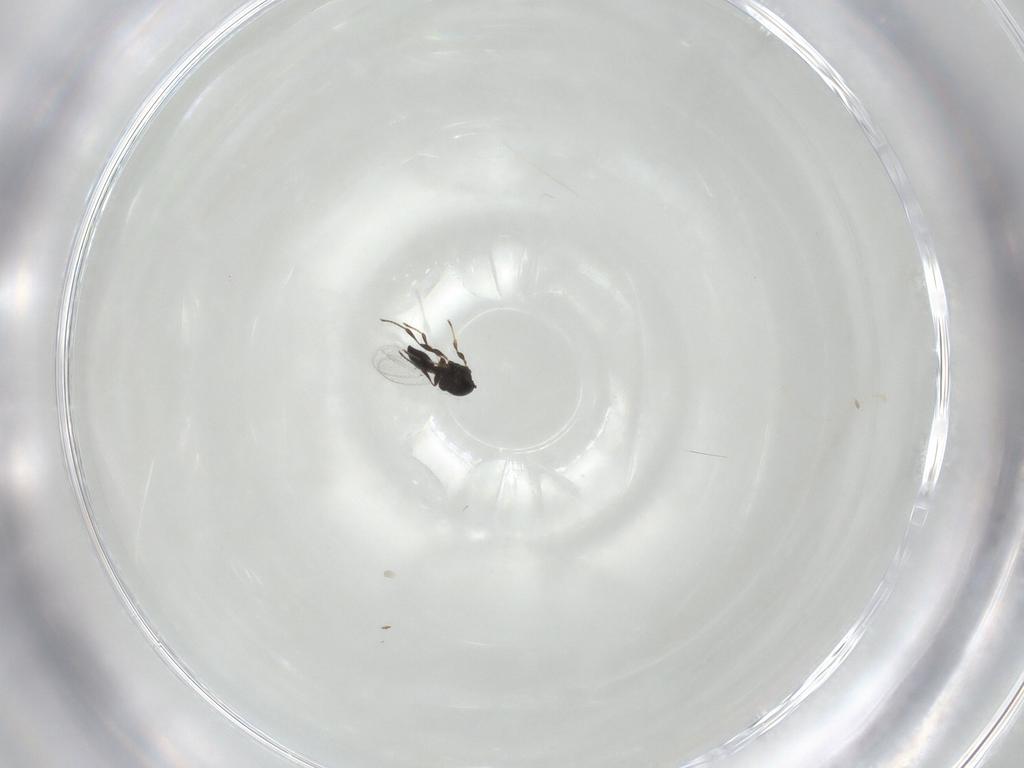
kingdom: Animalia
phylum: Arthropoda
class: Insecta
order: Hymenoptera
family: Platygastridae
